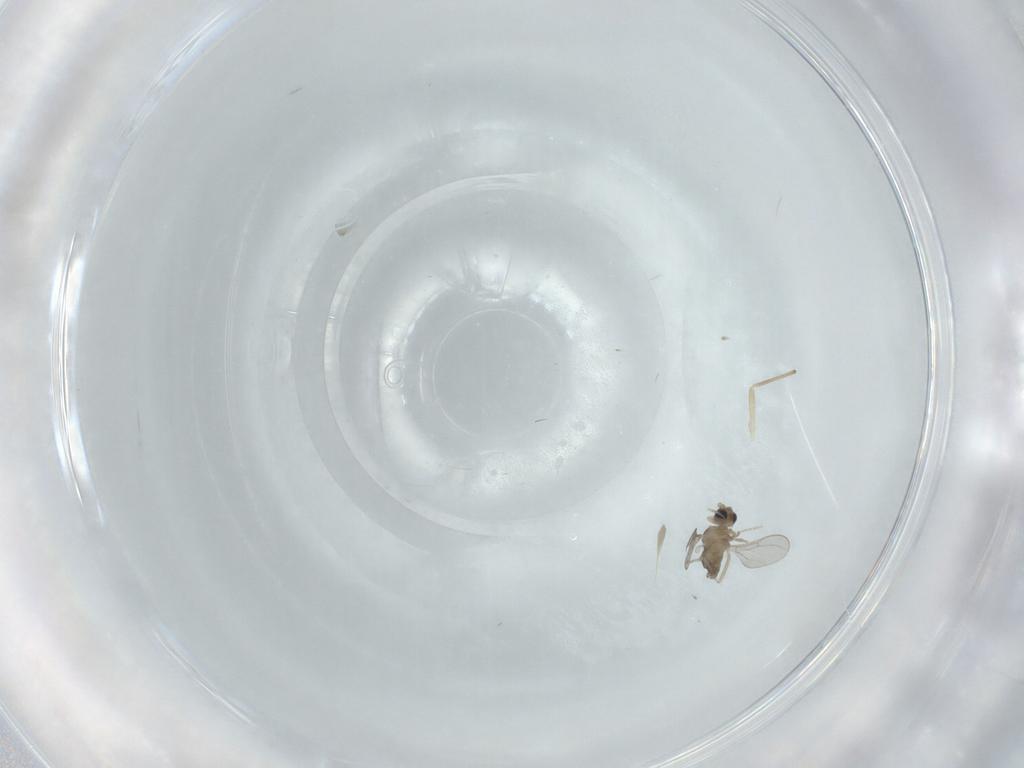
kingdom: Animalia
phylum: Arthropoda
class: Insecta
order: Diptera
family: Cecidomyiidae
